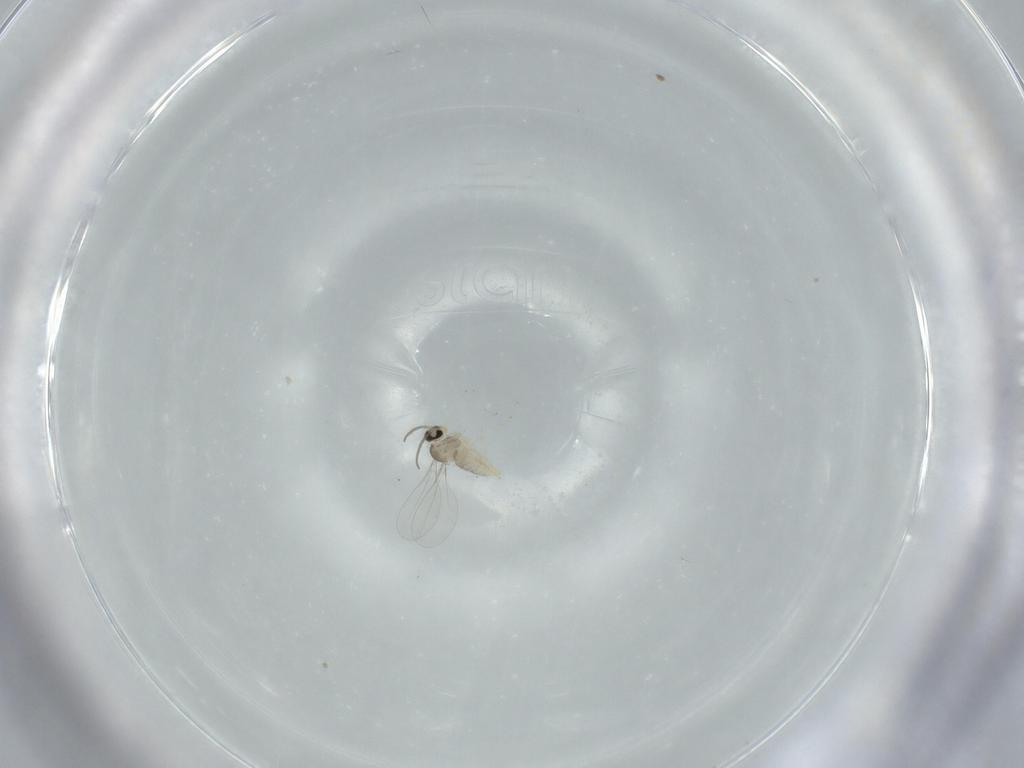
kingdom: Animalia
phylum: Arthropoda
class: Insecta
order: Diptera
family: Cecidomyiidae
